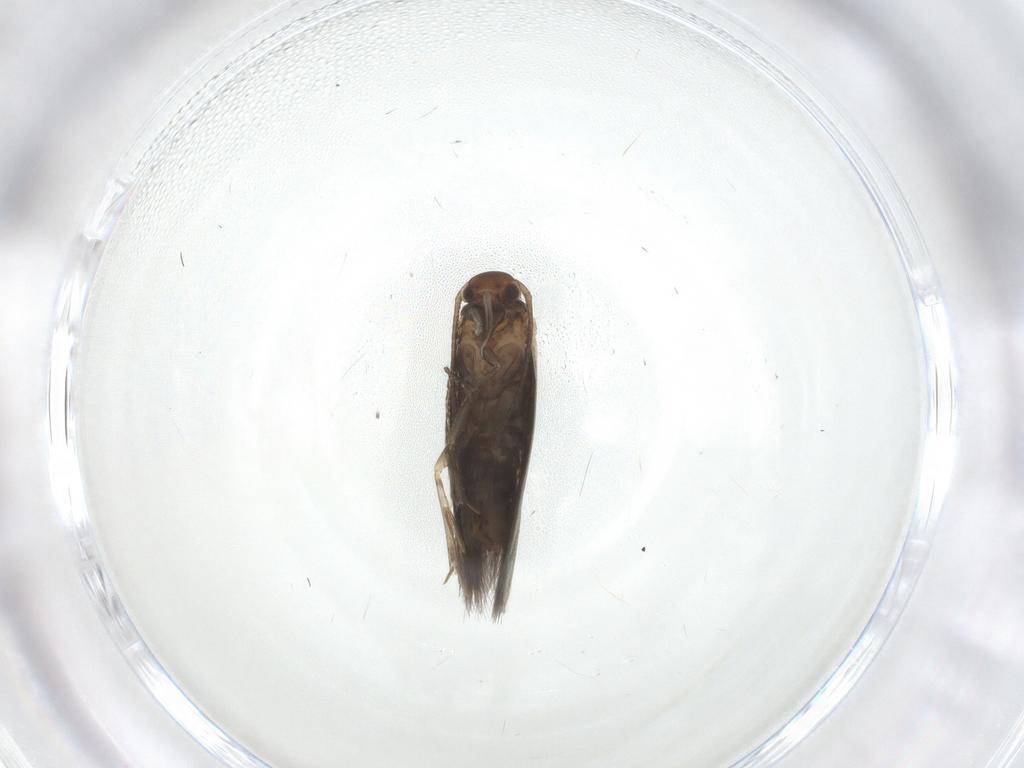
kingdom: Animalia
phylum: Arthropoda
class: Insecta
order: Lepidoptera
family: Elachistidae
